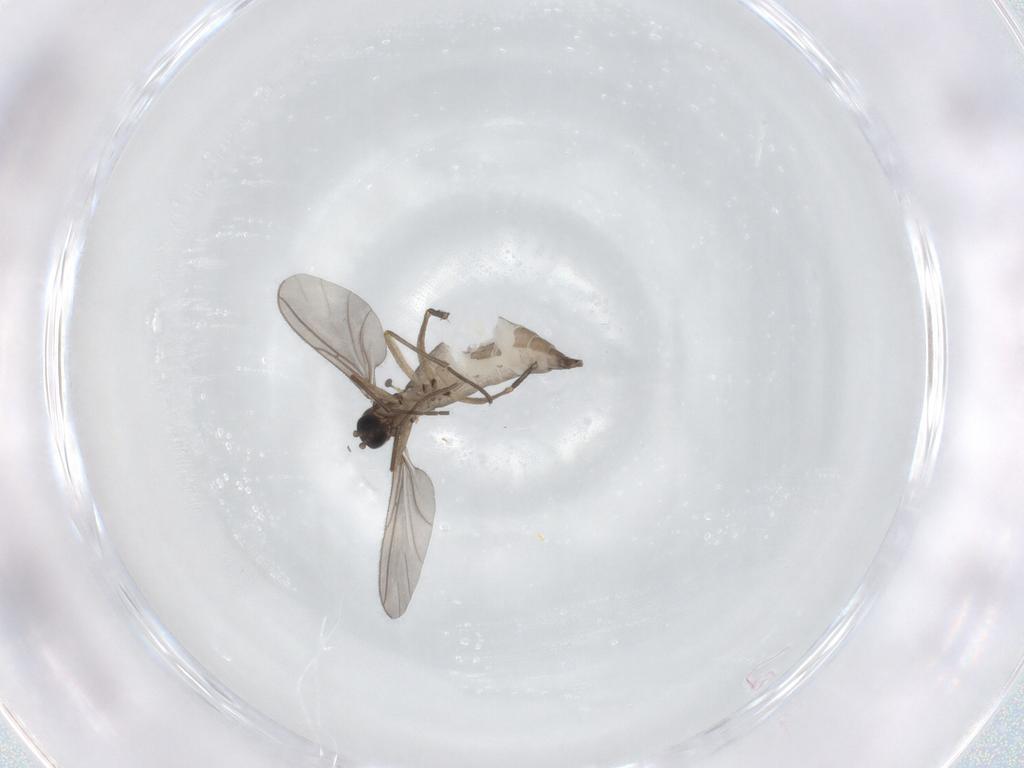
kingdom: Animalia
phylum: Arthropoda
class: Insecta
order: Diptera
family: Sciaridae
